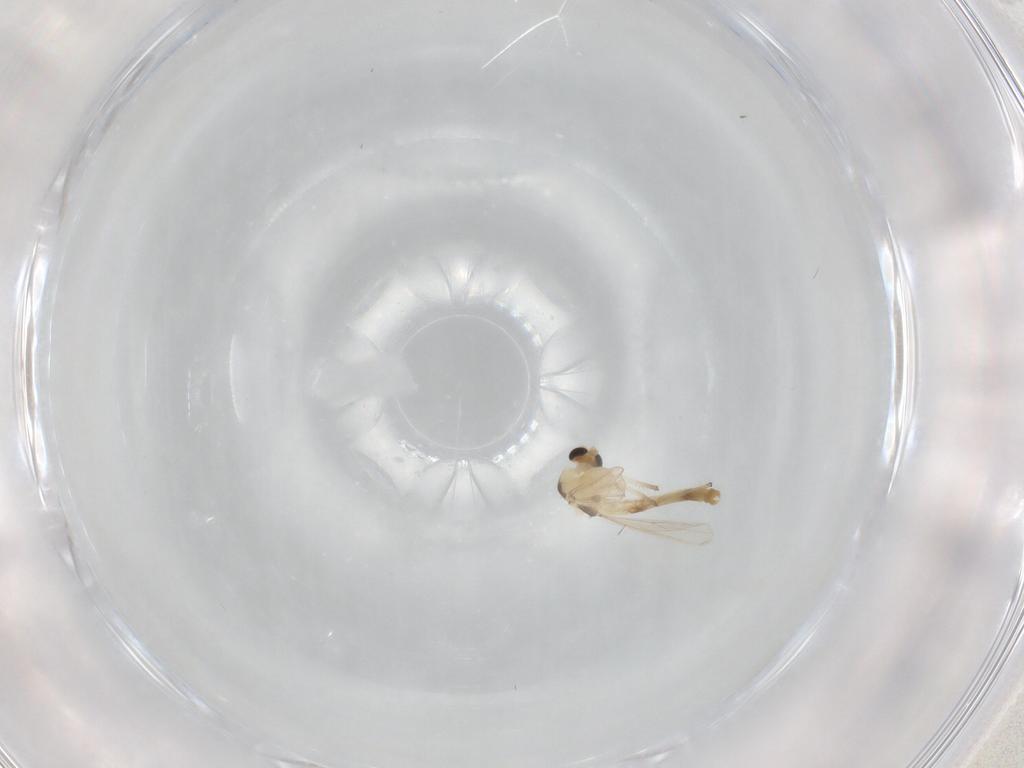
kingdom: Animalia
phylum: Arthropoda
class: Insecta
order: Diptera
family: Chironomidae
